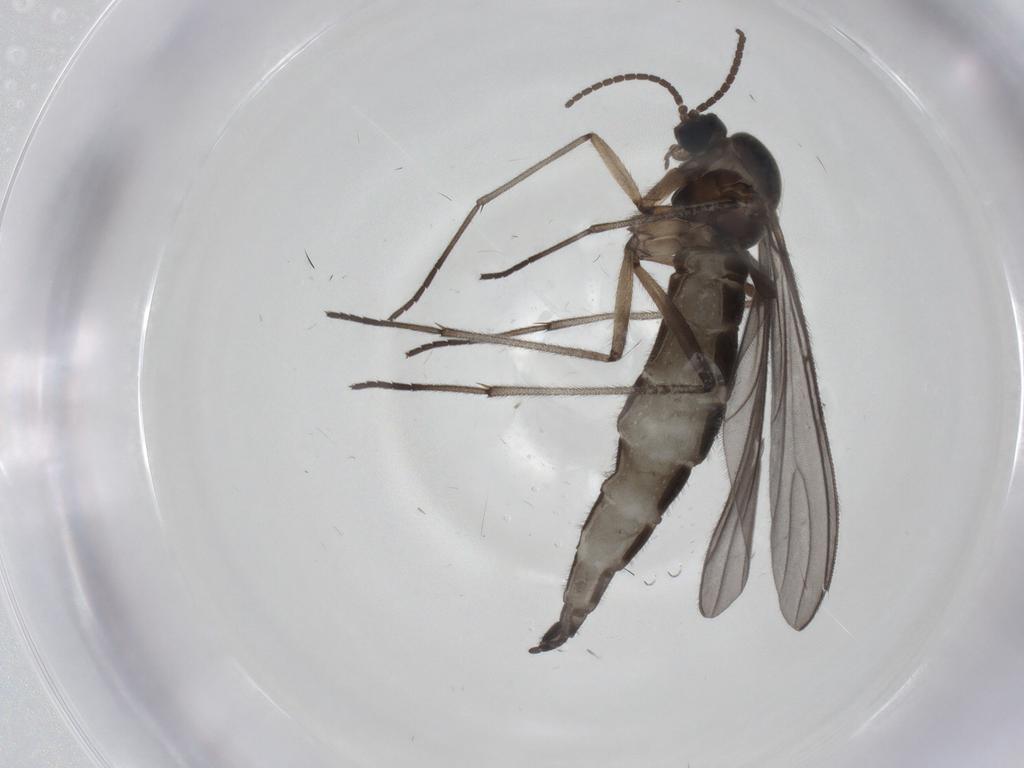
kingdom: Animalia
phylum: Arthropoda
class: Insecta
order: Diptera
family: Sciaridae
